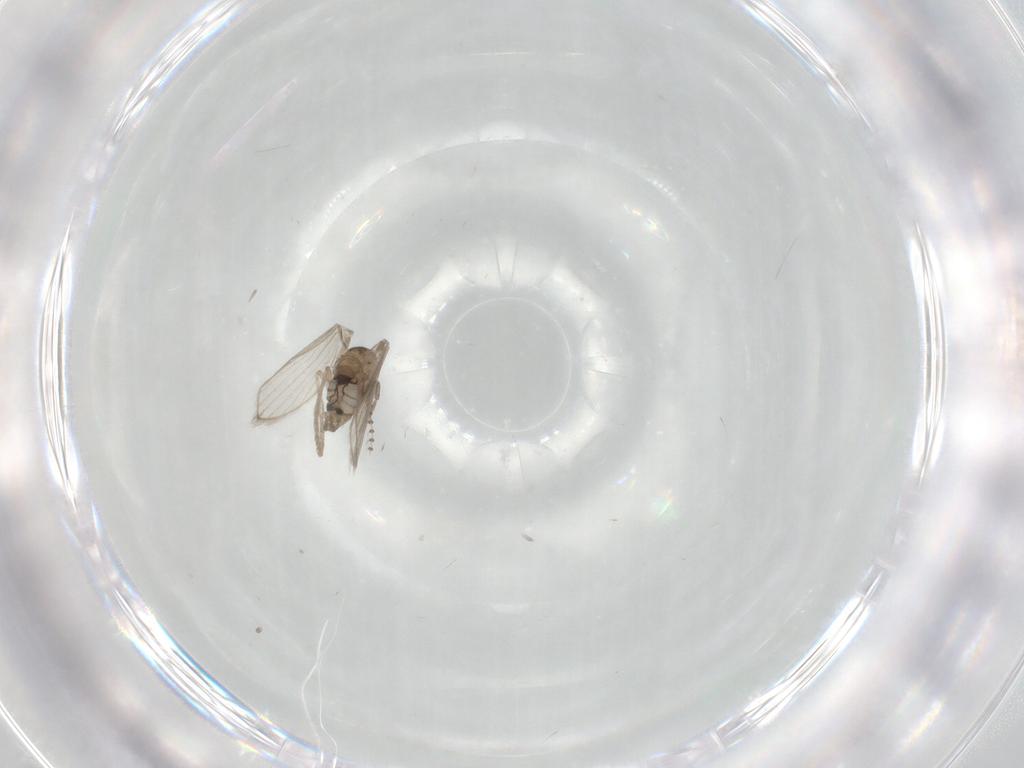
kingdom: Animalia
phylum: Arthropoda
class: Insecta
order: Diptera
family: Psychodidae
